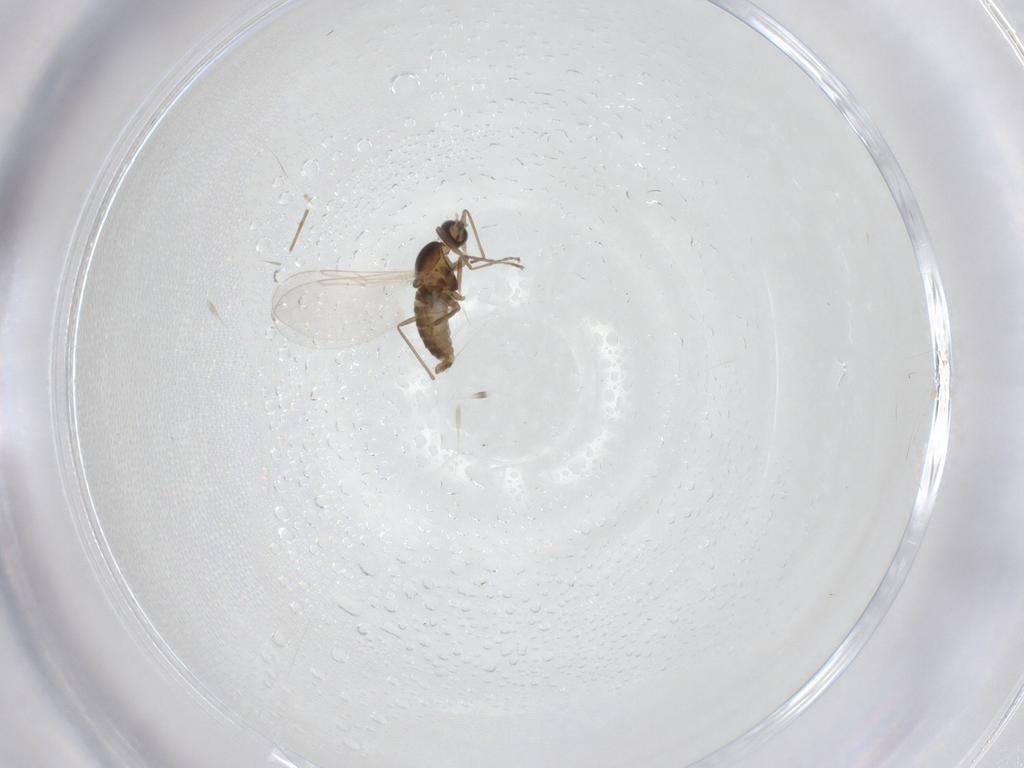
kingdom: Animalia
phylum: Arthropoda
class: Insecta
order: Diptera
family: Cecidomyiidae
